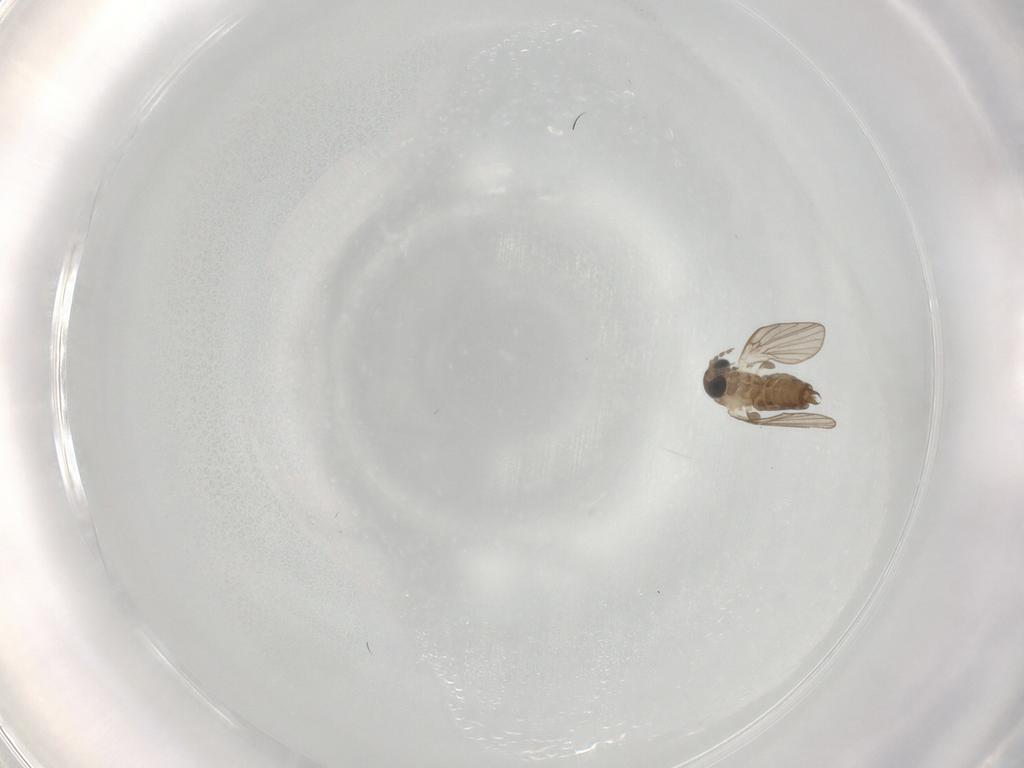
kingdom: Animalia
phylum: Arthropoda
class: Insecta
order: Diptera
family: Psychodidae
